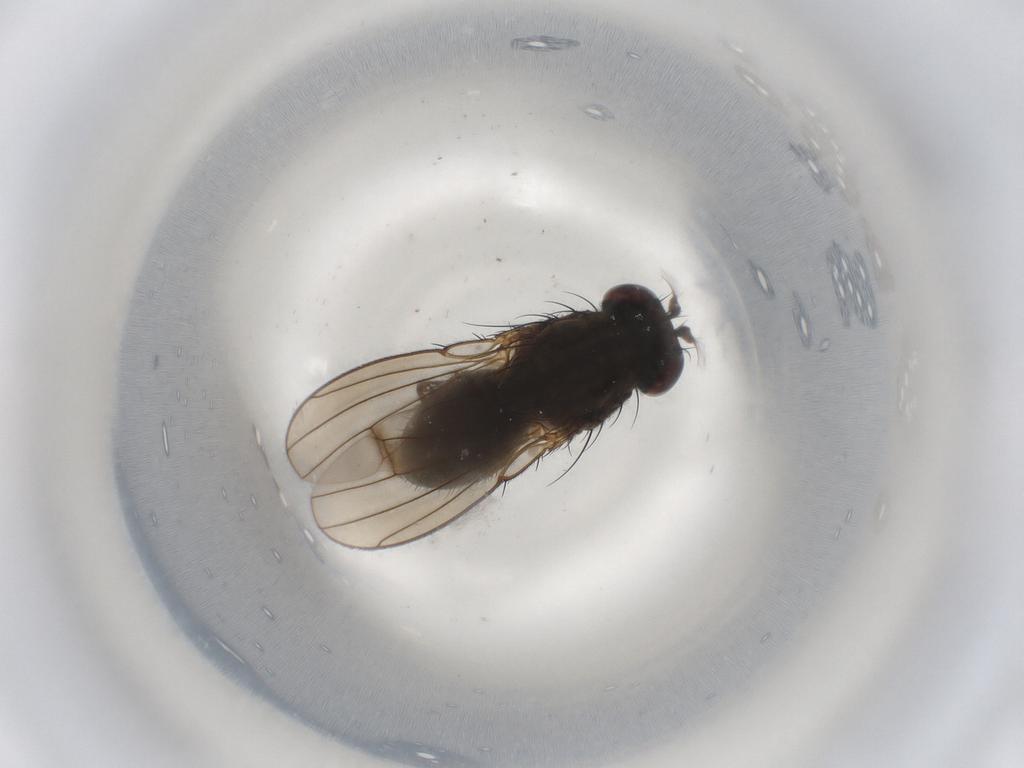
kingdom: Animalia
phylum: Arthropoda
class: Insecta
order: Diptera
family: Ephydridae
